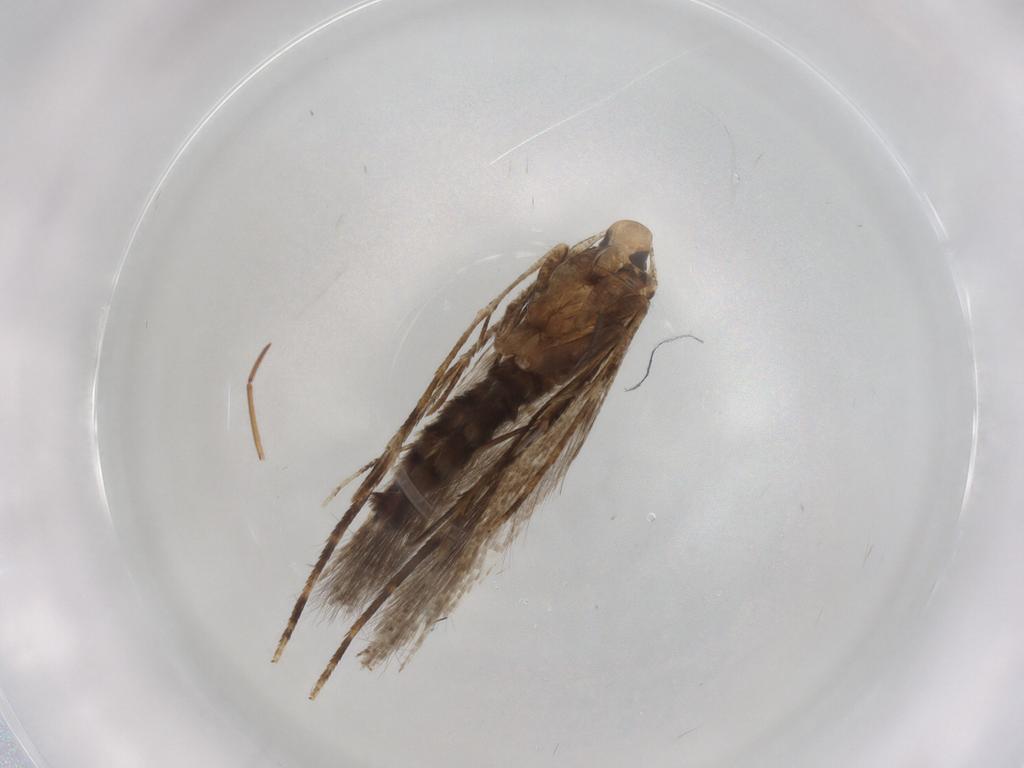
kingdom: Animalia
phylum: Arthropoda
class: Insecta
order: Lepidoptera
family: Cosmopterigidae
